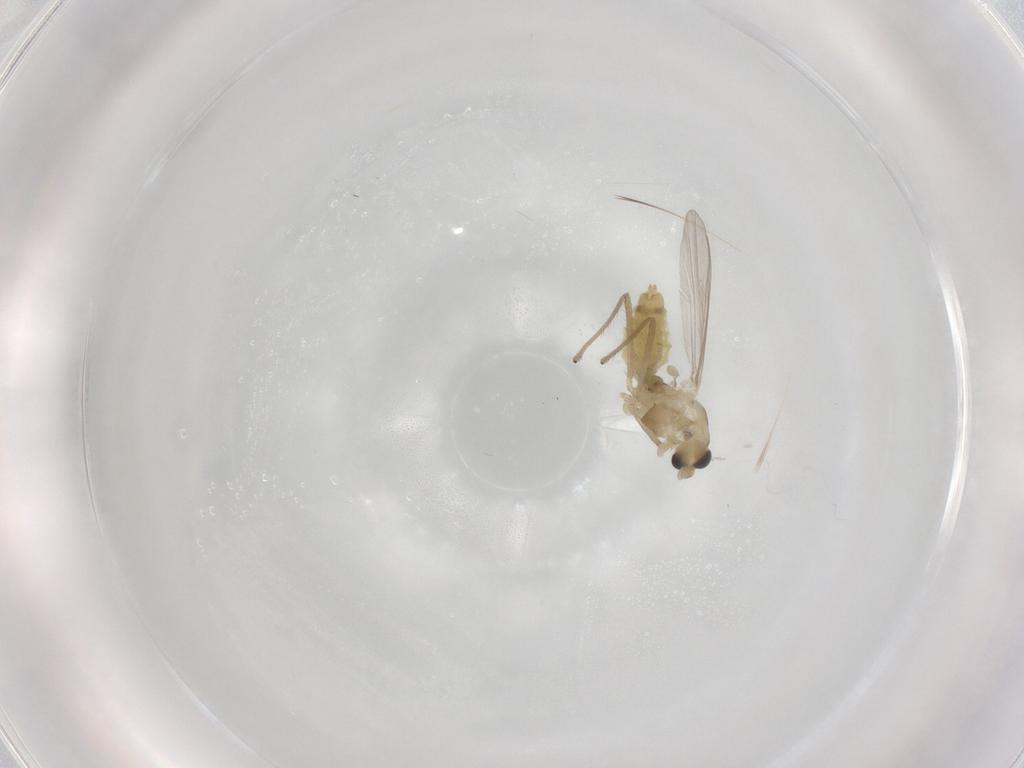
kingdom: Animalia
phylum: Arthropoda
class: Insecta
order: Diptera
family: Chironomidae
